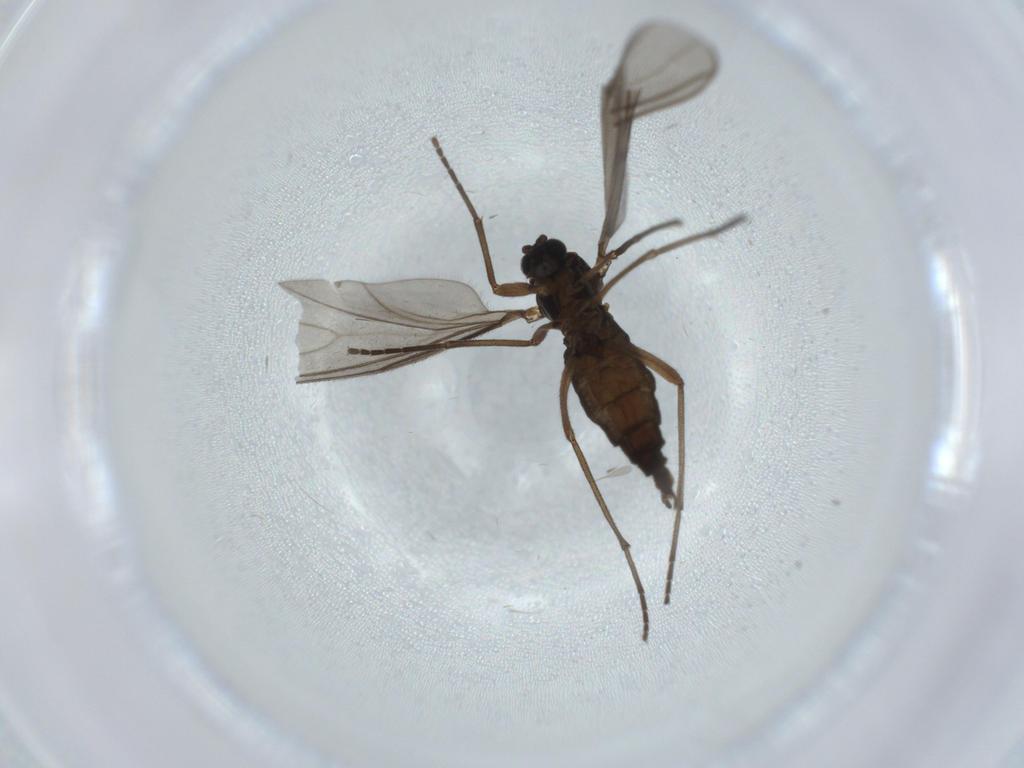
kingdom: Animalia
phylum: Arthropoda
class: Insecta
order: Diptera
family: Sciaridae
